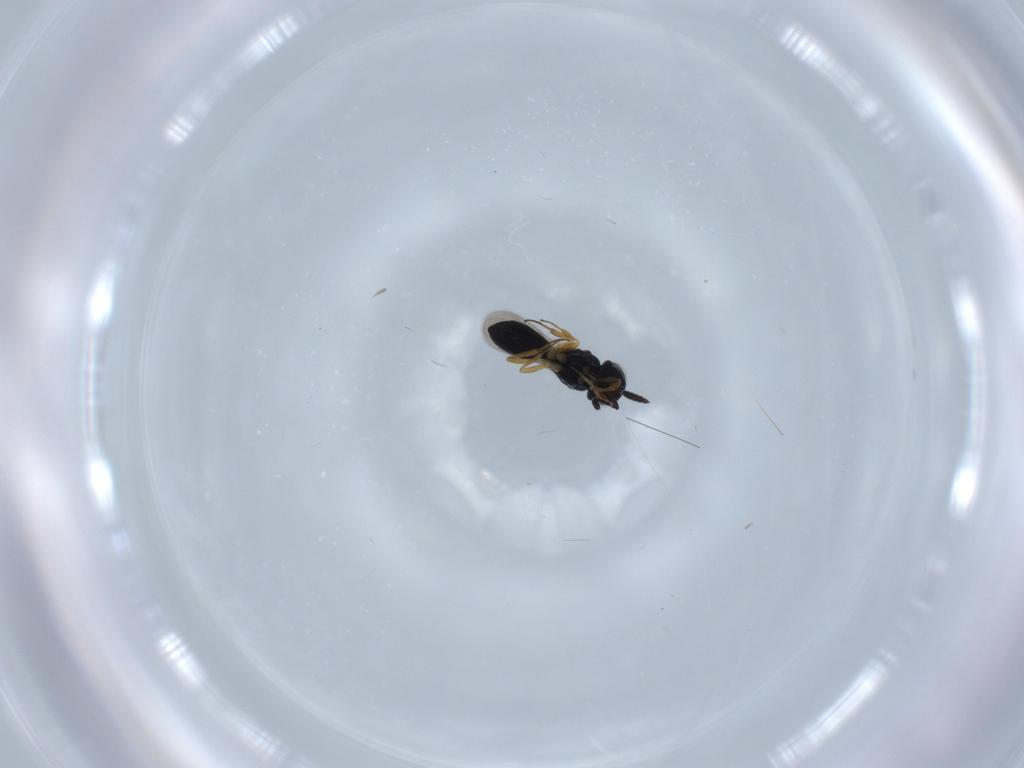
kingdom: Animalia
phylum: Arthropoda
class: Insecta
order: Hymenoptera
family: Scelionidae
